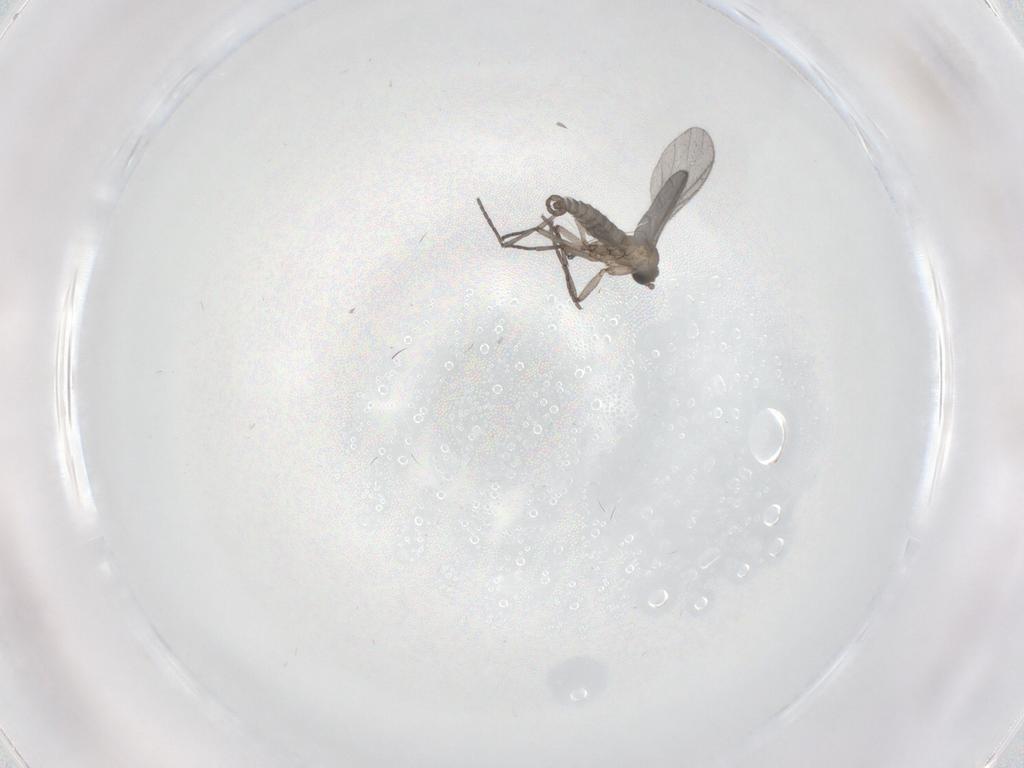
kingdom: Animalia
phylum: Arthropoda
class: Insecta
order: Diptera
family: Sciaridae
